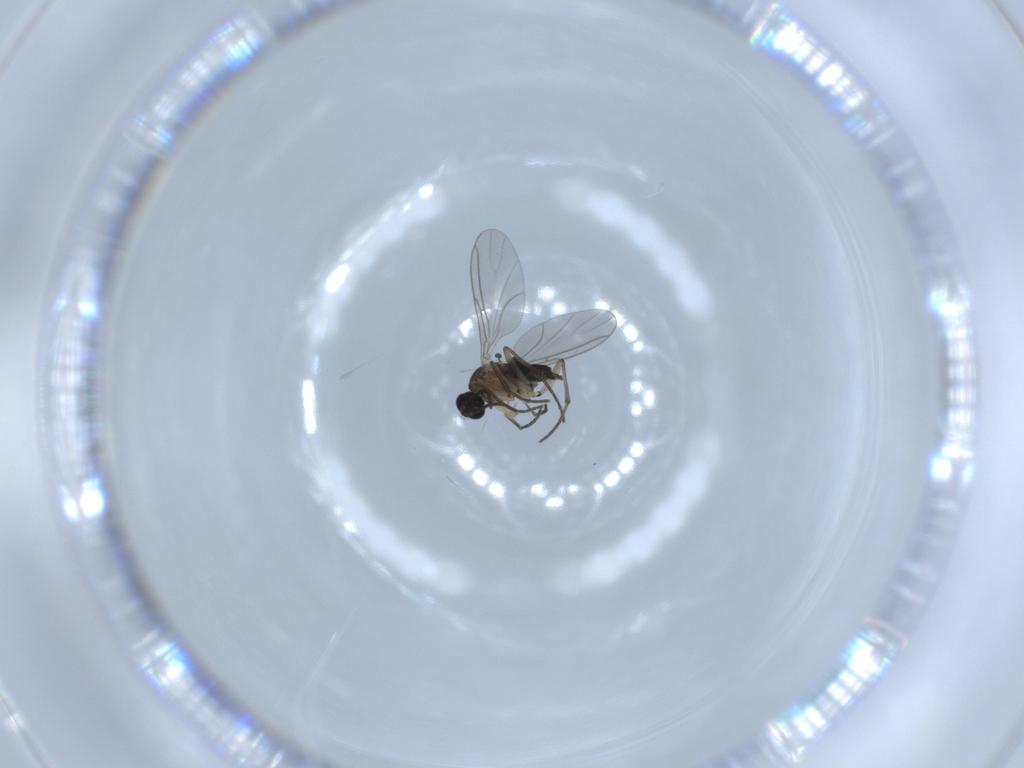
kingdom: Animalia
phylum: Arthropoda
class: Insecta
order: Diptera
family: Sciaridae
